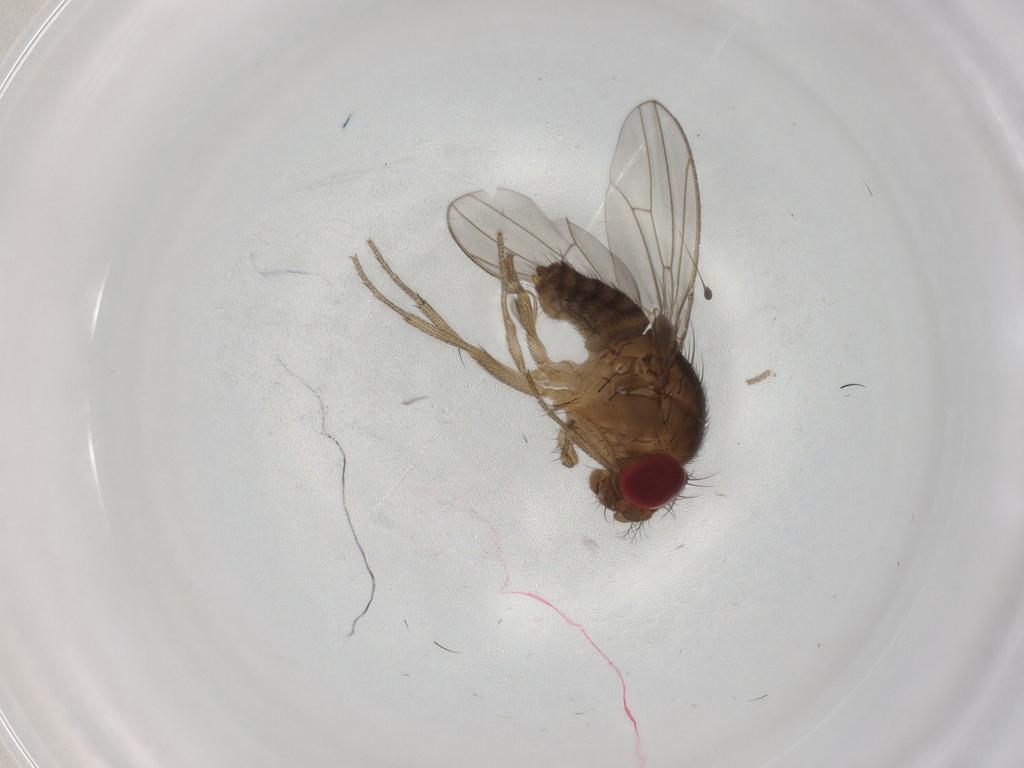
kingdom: Animalia
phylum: Arthropoda
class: Insecta
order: Diptera
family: Drosophilidae
